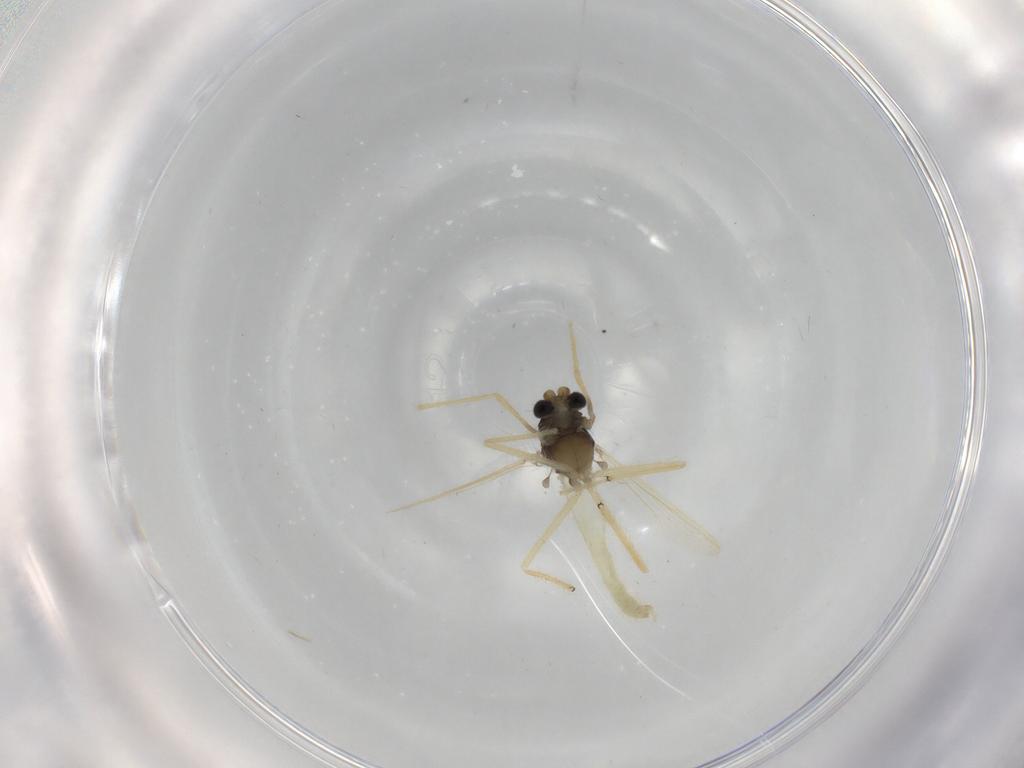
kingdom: Animalia
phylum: Arthropoda
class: Insecta
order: Diptera
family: Chironomidae
